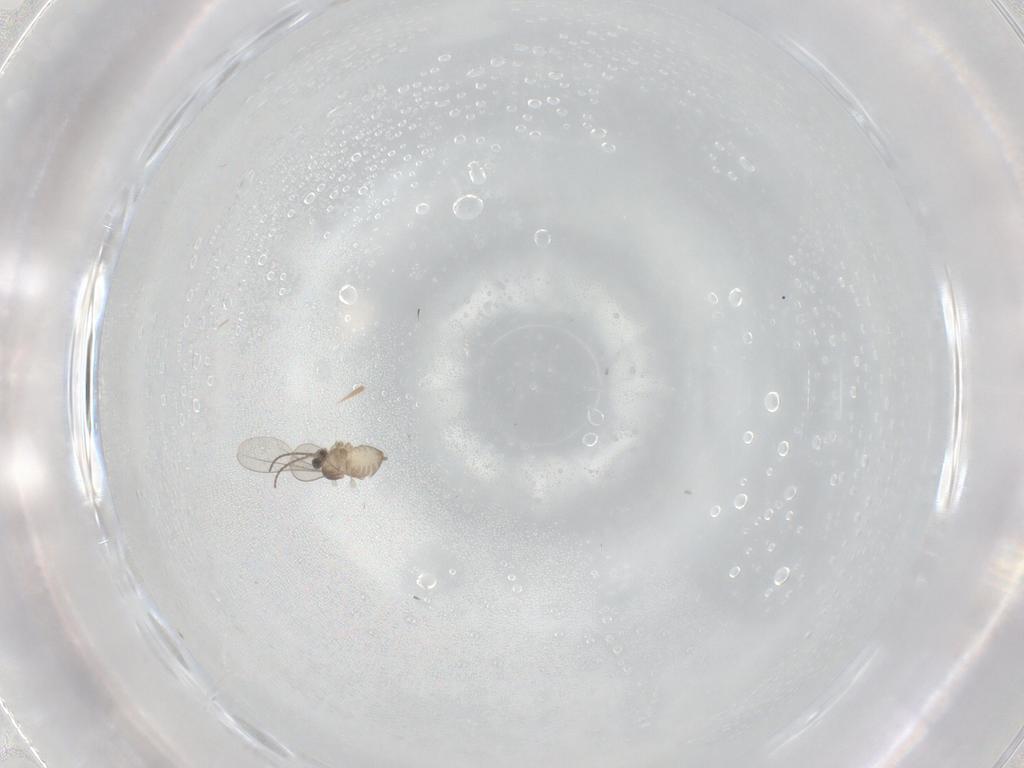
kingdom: Animalia
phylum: Arthropoda
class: Insecta
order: Diptera
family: Cecidomyiidae
